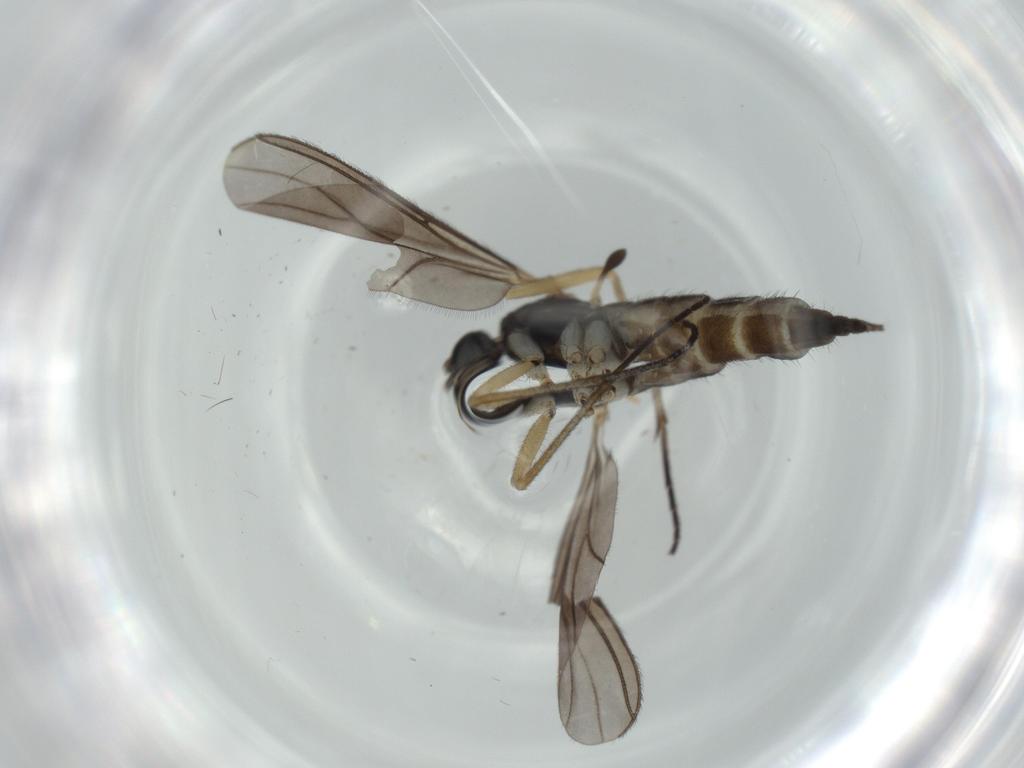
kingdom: Animalia
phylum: Arthropoda
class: Insecta
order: Diptera
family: Sciaridae
